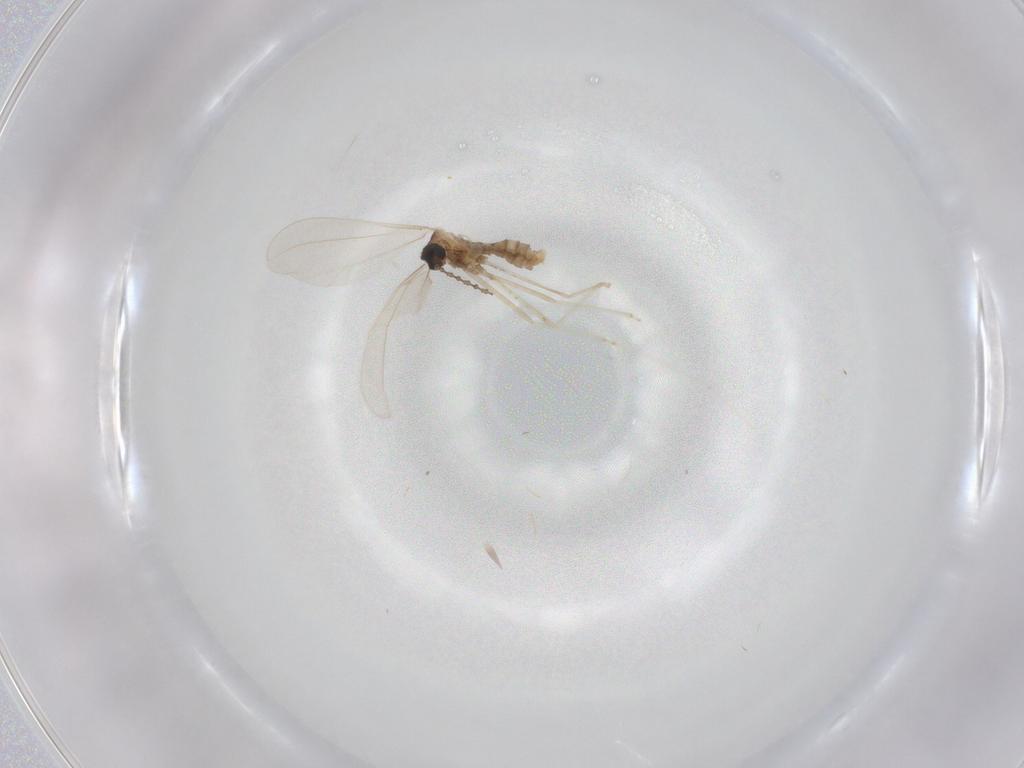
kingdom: Animalia
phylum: Arthropoda
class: Insecta
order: Diptera
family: Cecidomyiidae
